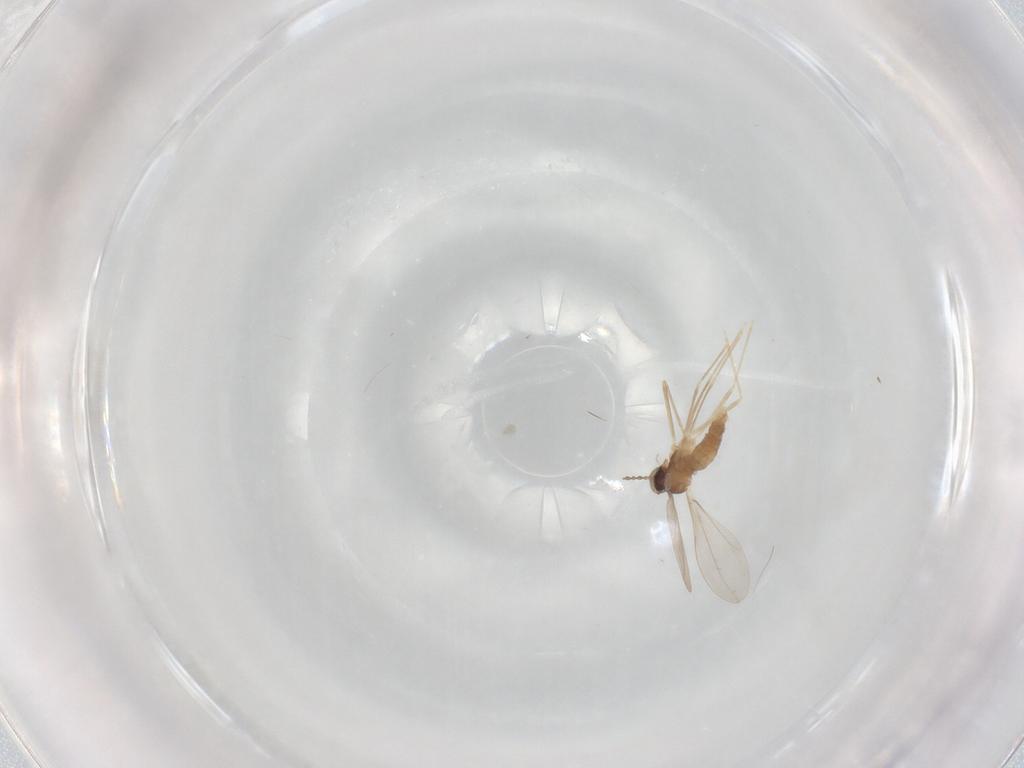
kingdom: Animalia
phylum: Arthropoda
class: Insecta
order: Diptera
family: Cecidomyiidae
